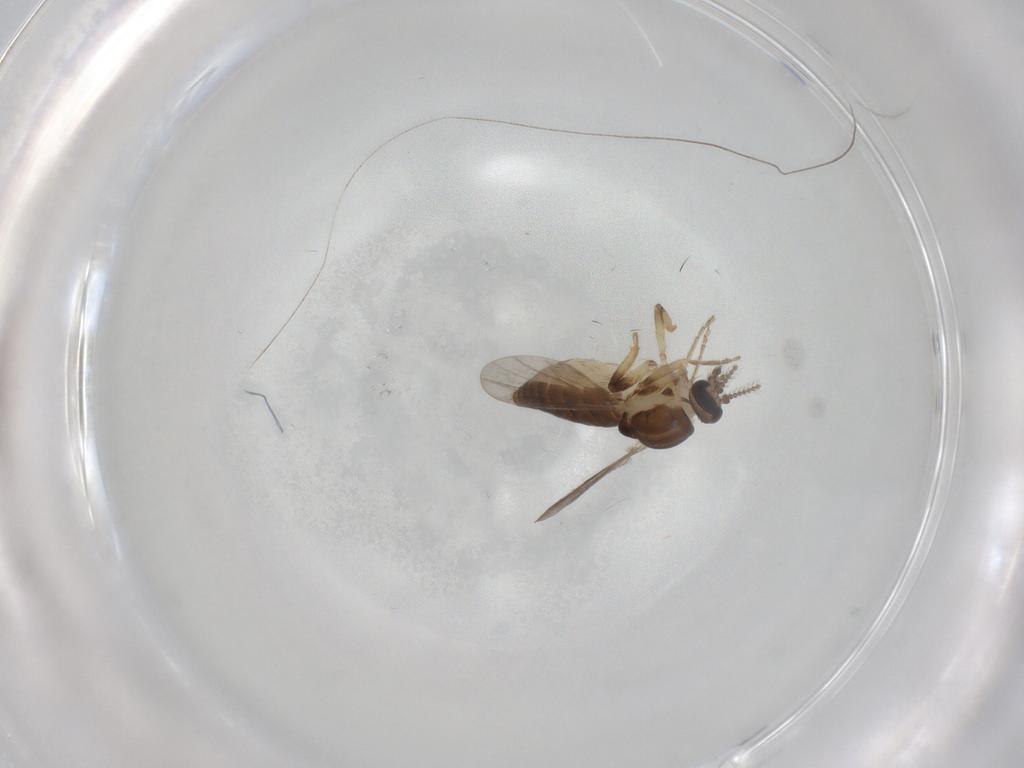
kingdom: Animalia
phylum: Arthropoda
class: Insecta
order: Diptera
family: Ceratopogonidae
